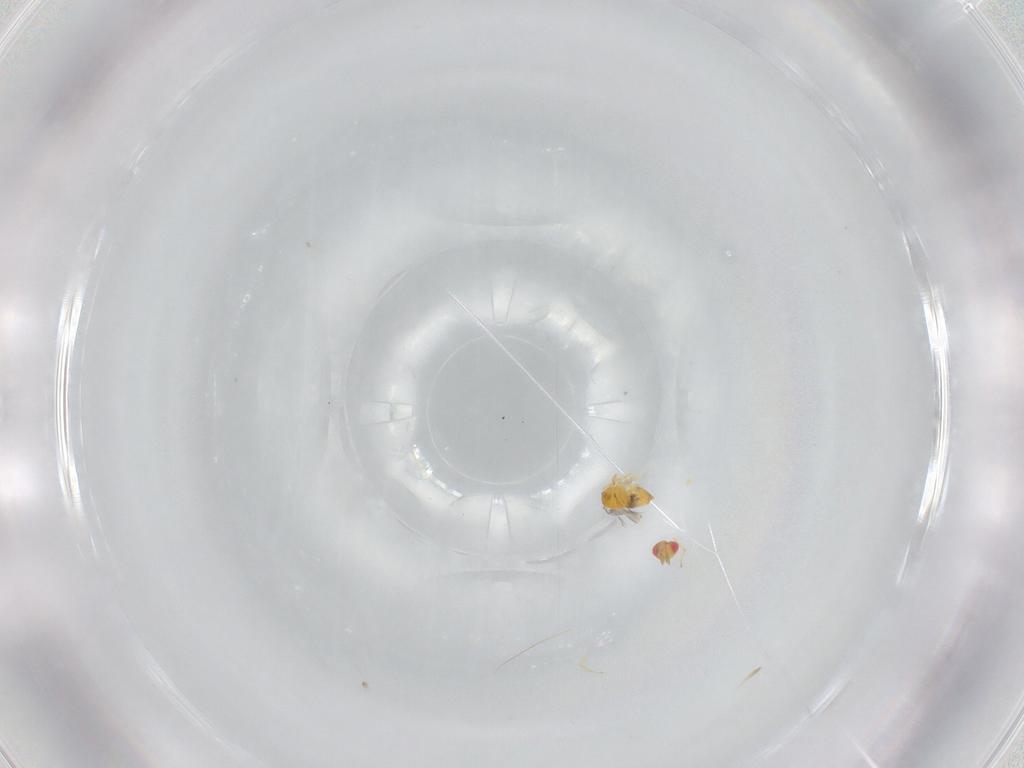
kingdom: Animalia
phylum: Arthropoda
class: Insecta
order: Hymenoptera
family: Trichogrammatidae
